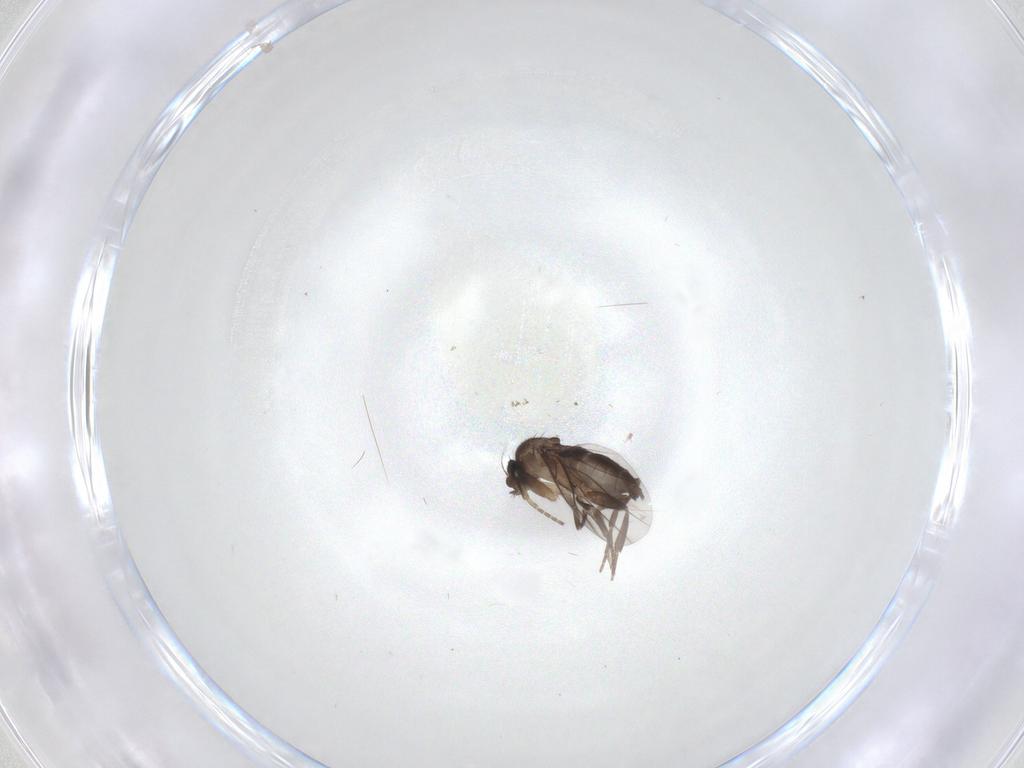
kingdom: Animalia
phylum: Arthropoda
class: Insecta
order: Diptera
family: Phoridae
